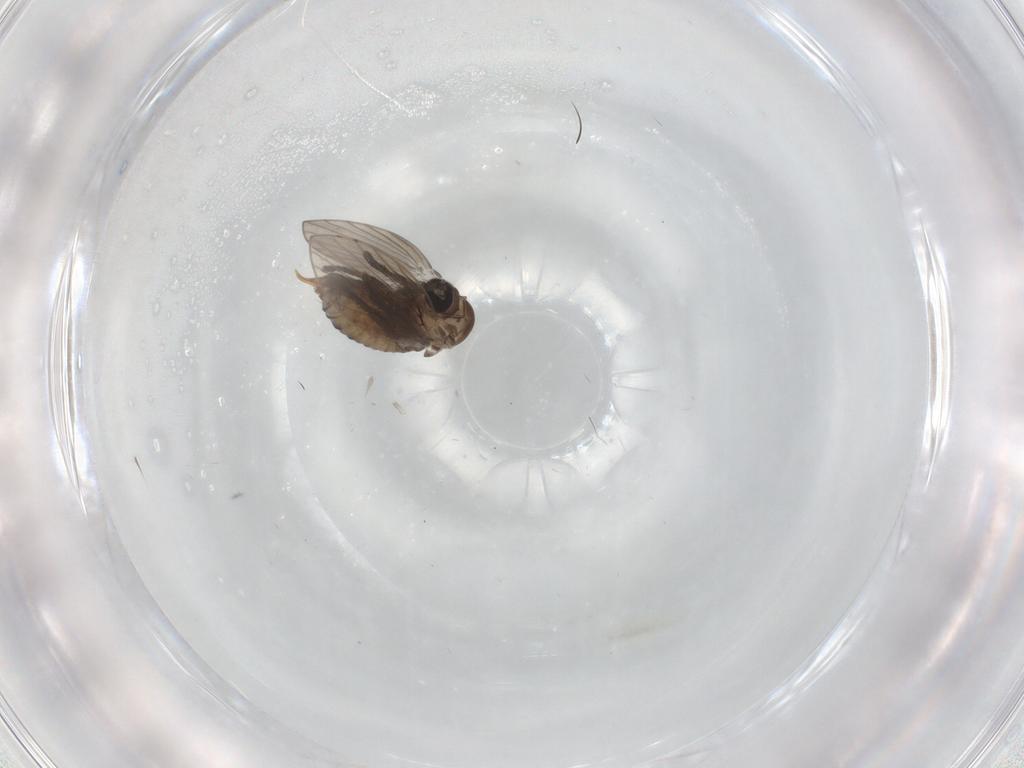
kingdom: Animalia
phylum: Arthropoda
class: Insecta
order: Diptera
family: Psychodidae
